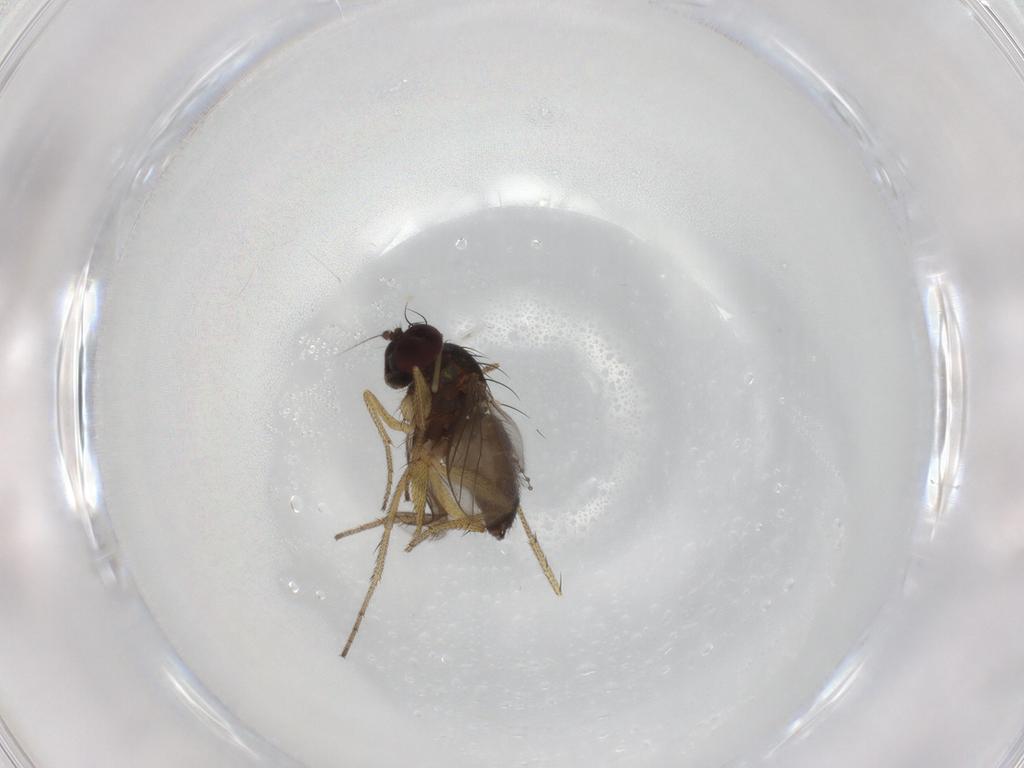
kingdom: Animalia
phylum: Arthropoda
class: Insecta
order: Diptera
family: Dolichopodidae
